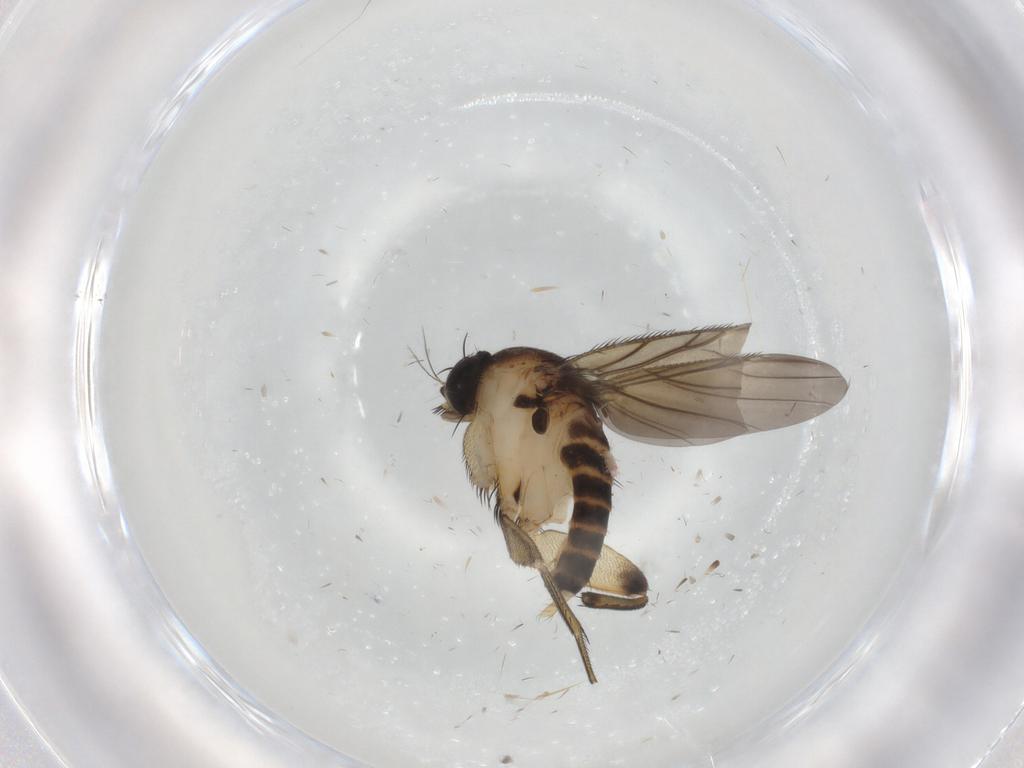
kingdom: Animalia
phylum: Arthropoda
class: Insecta
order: Diptera
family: Phoridae
